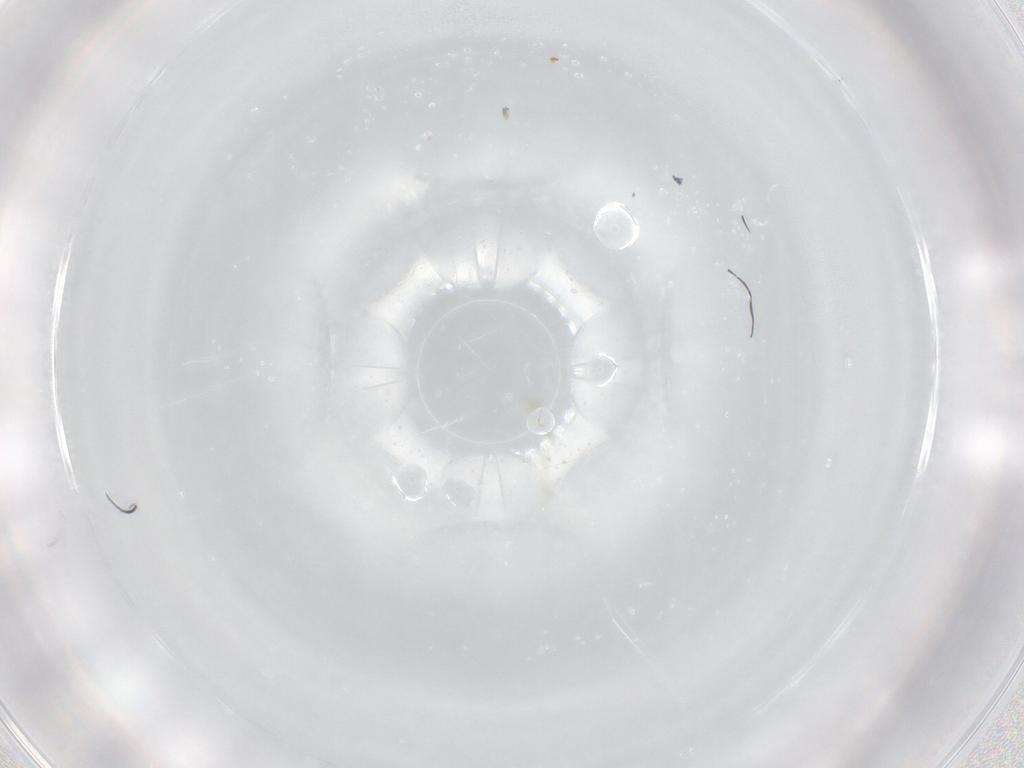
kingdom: Animalia
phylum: Arthropoda
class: Insecta
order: Hymenoptera
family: Mymaridae
